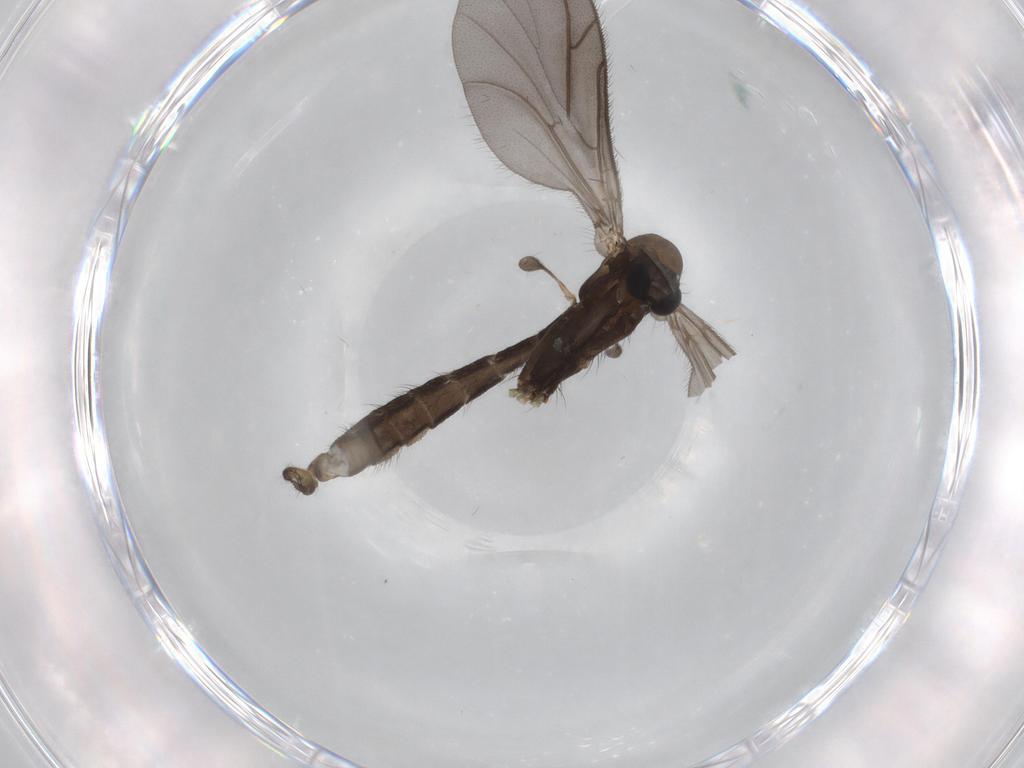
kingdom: Animalia
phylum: Arthropoda
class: Insecta
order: Diptera
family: Cecidomyiidae
